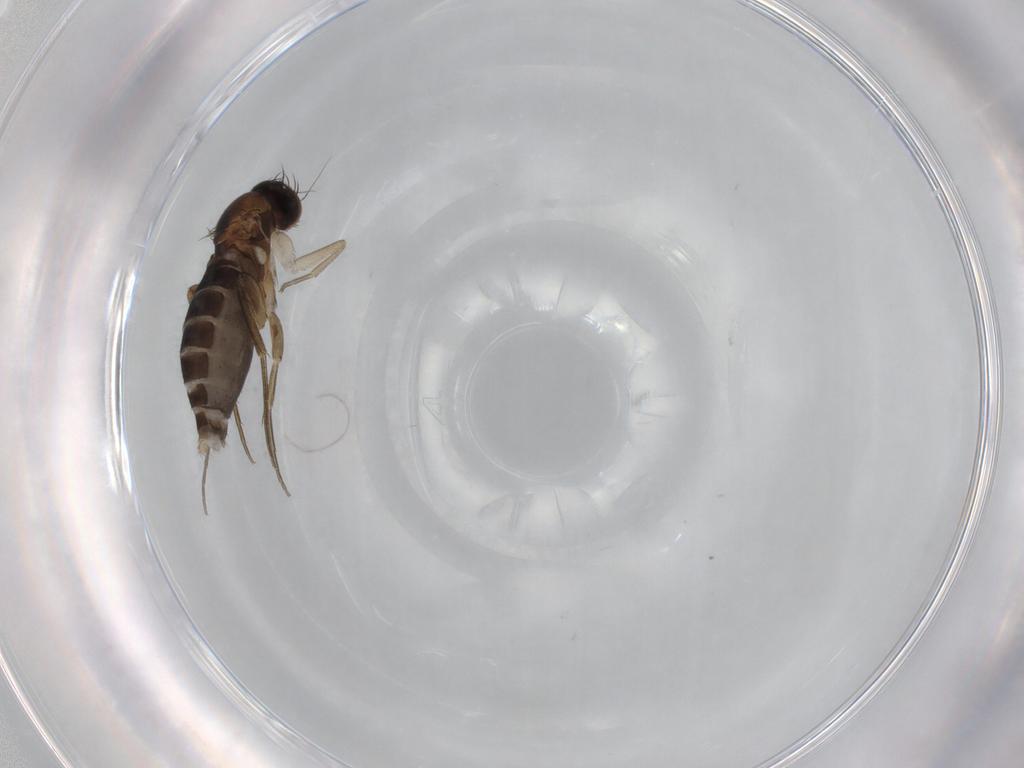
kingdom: Animalia
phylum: Arthropoda
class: Insecta
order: Diptera
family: Phoridae
